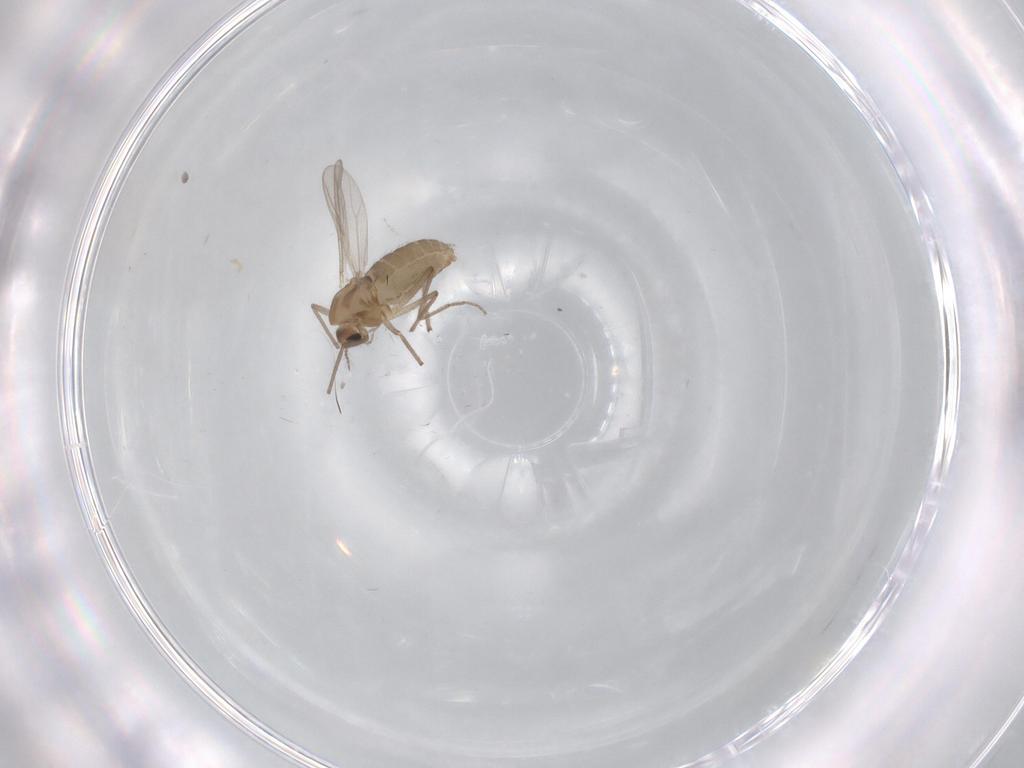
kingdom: Animalia
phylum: Arthropoda
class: Insecta
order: Diptera
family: Chironomidae
